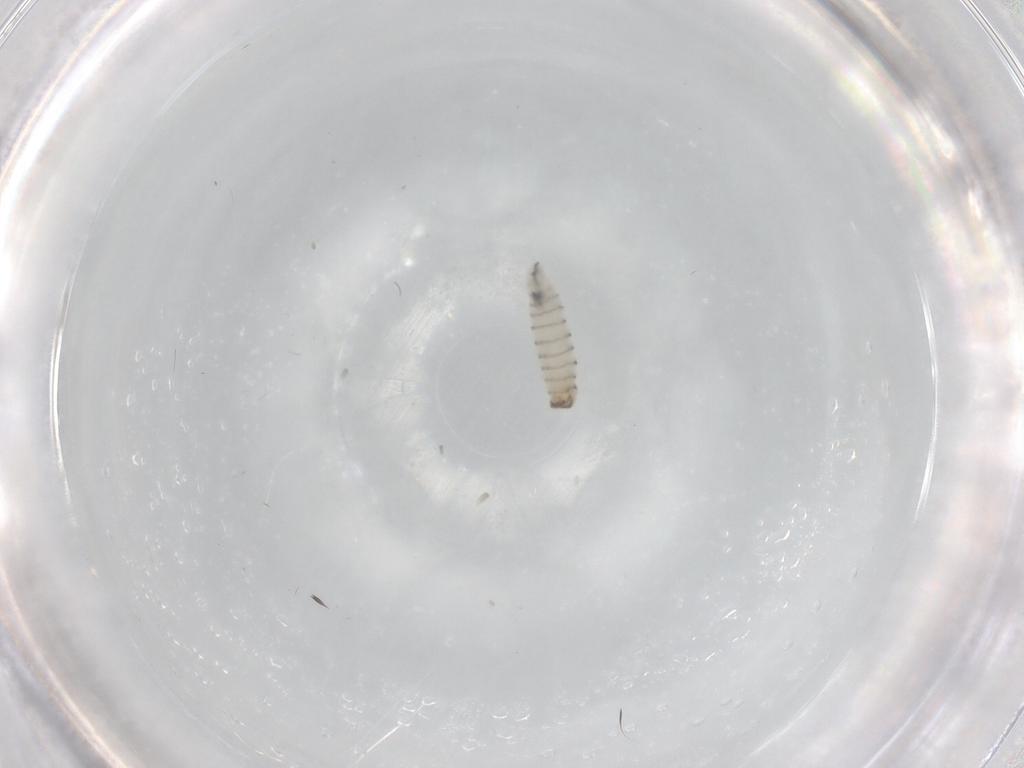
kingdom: Animalia
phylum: Arthropoda
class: Insecta
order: Diptera
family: Sarcophagidae
